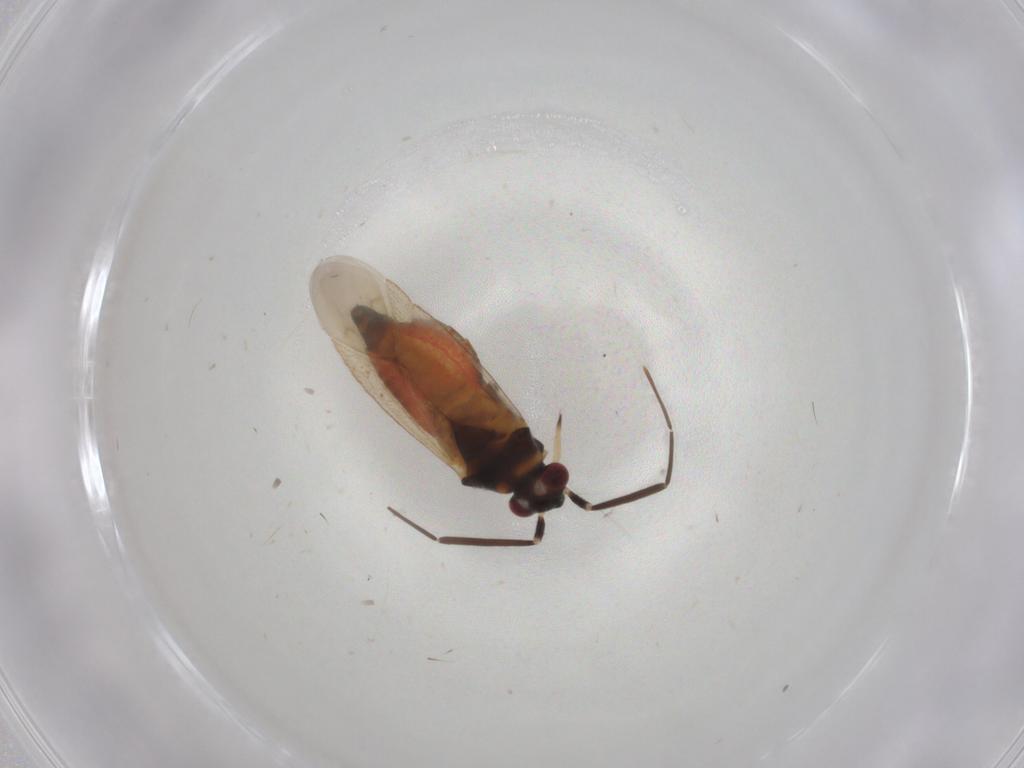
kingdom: Animalia
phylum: Arthropoda
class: Insecta
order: Hemiptera
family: Miridae
